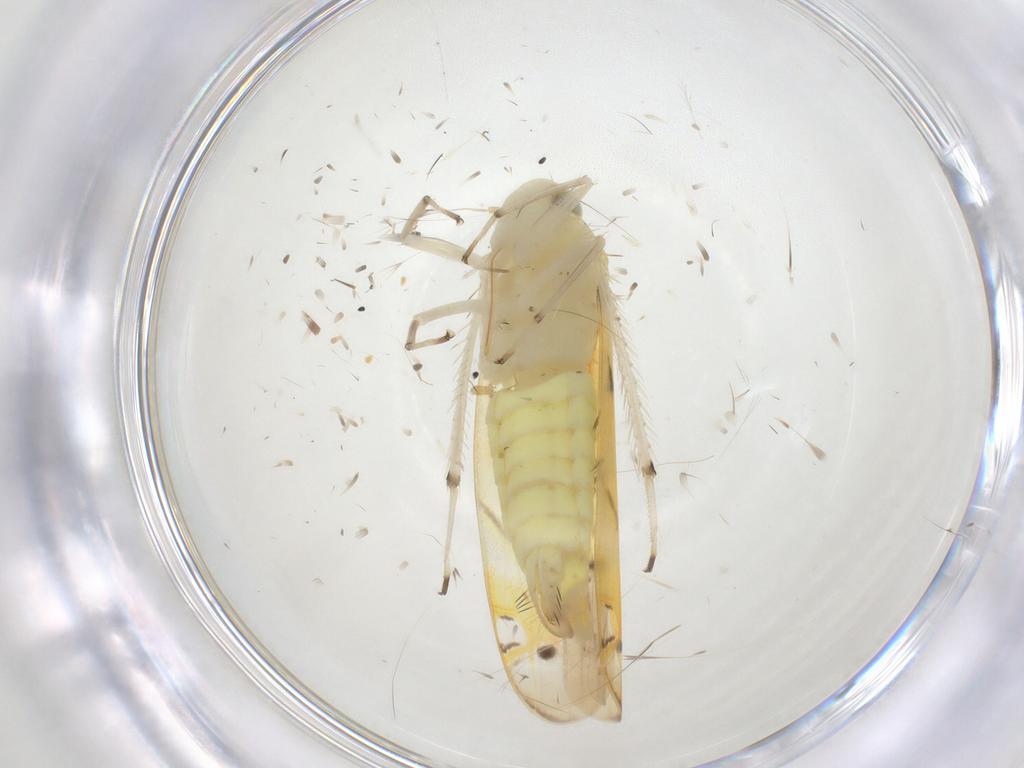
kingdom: Animalia
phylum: Arthropoda
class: Insecta
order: Hemiptera
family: Cicadellidae
